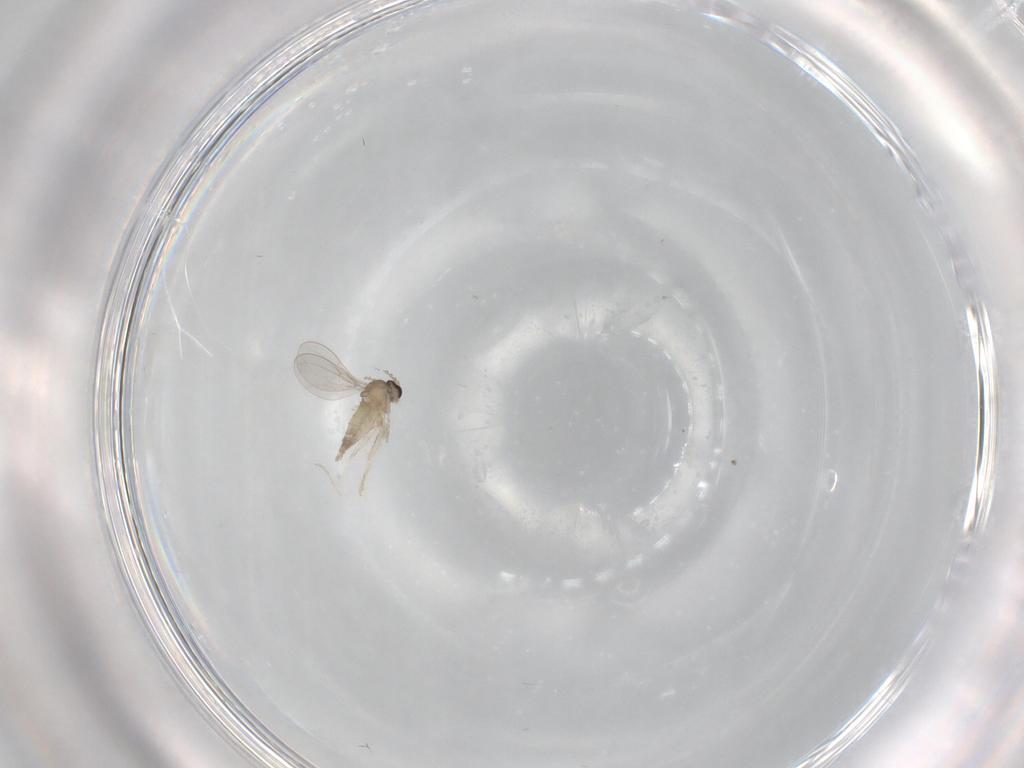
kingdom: Animalia
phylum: Arthropoda
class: Insecta
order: Diptera
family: Cecidomyiidae
